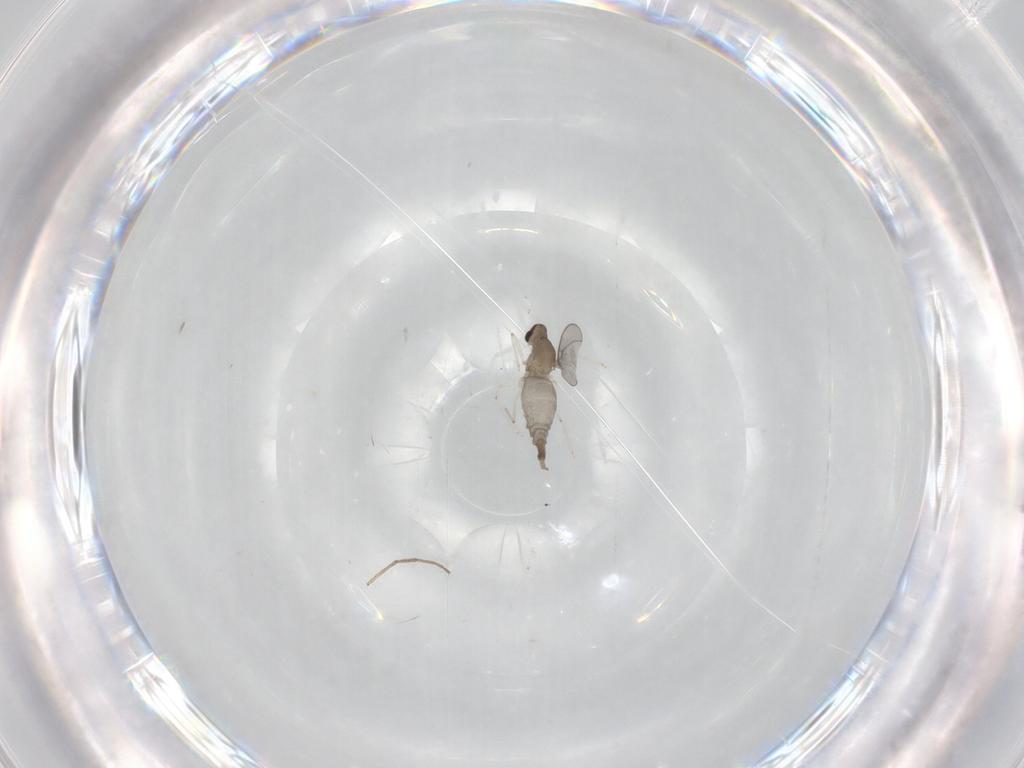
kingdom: Animalia
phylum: Arthropoda
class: Insecta
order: Diptera
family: Cecidomyiidae
